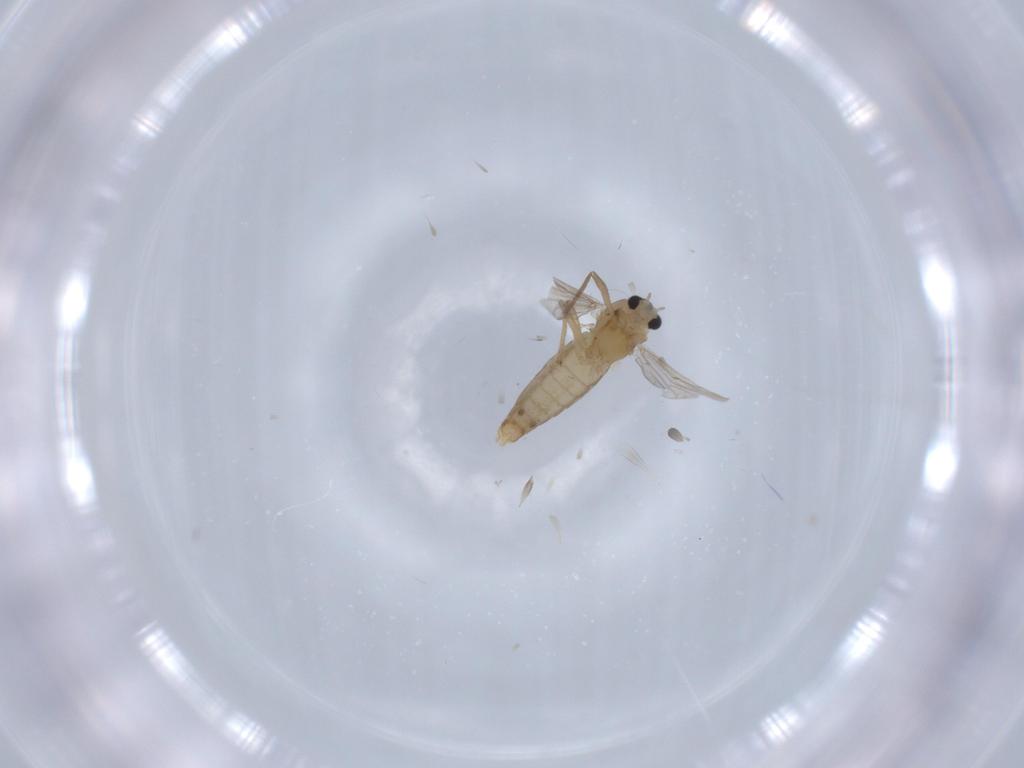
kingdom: Animalia
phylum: Arthropoda
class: Insecta
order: Diptera
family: Chironomidae
